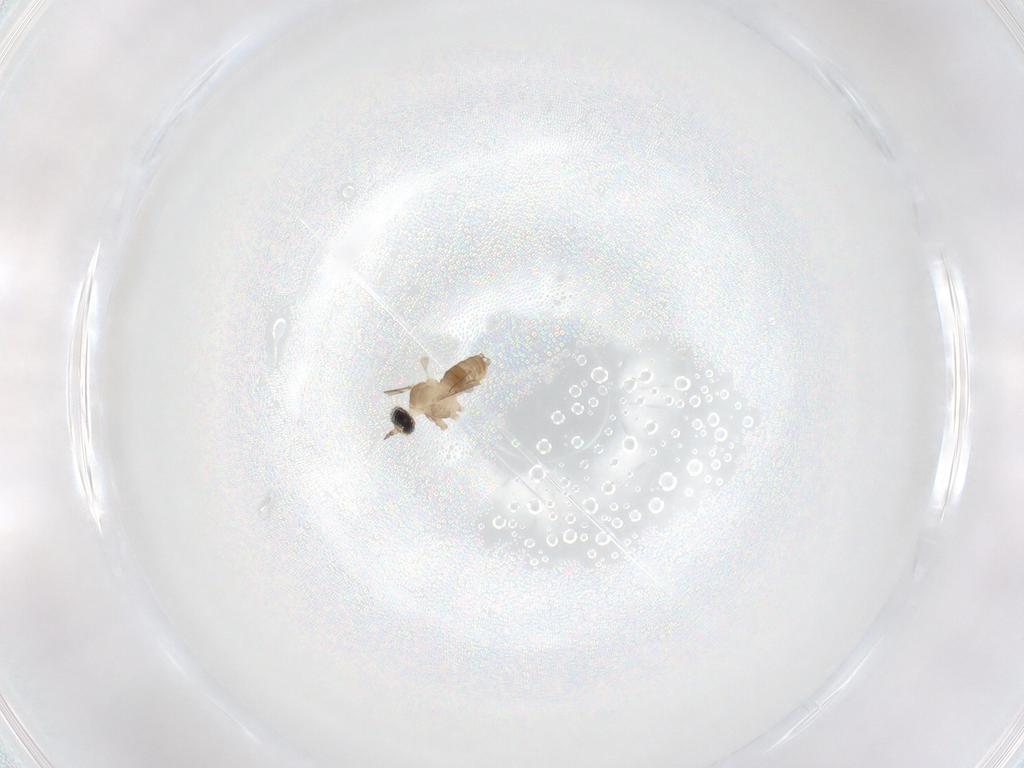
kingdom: Animalia
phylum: Arthropoda
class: Insecta
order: Diptera
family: Cecidomyiidae
